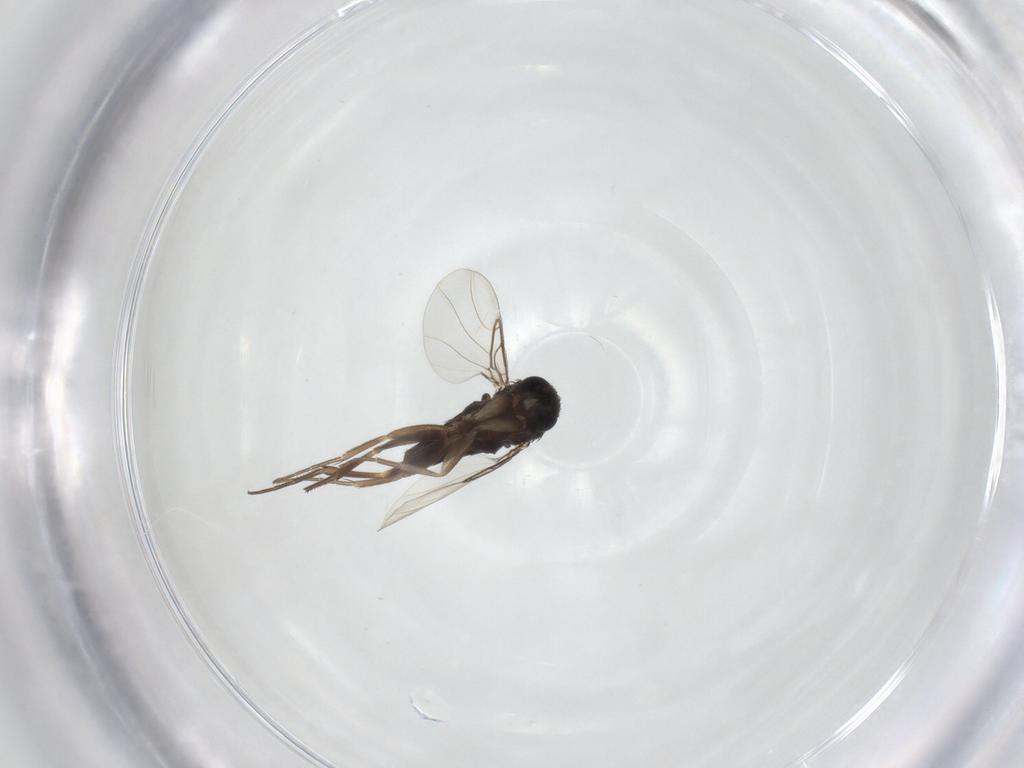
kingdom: Animalia
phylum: Arthropoda
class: Insecta
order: Diptera
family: Phoridae
